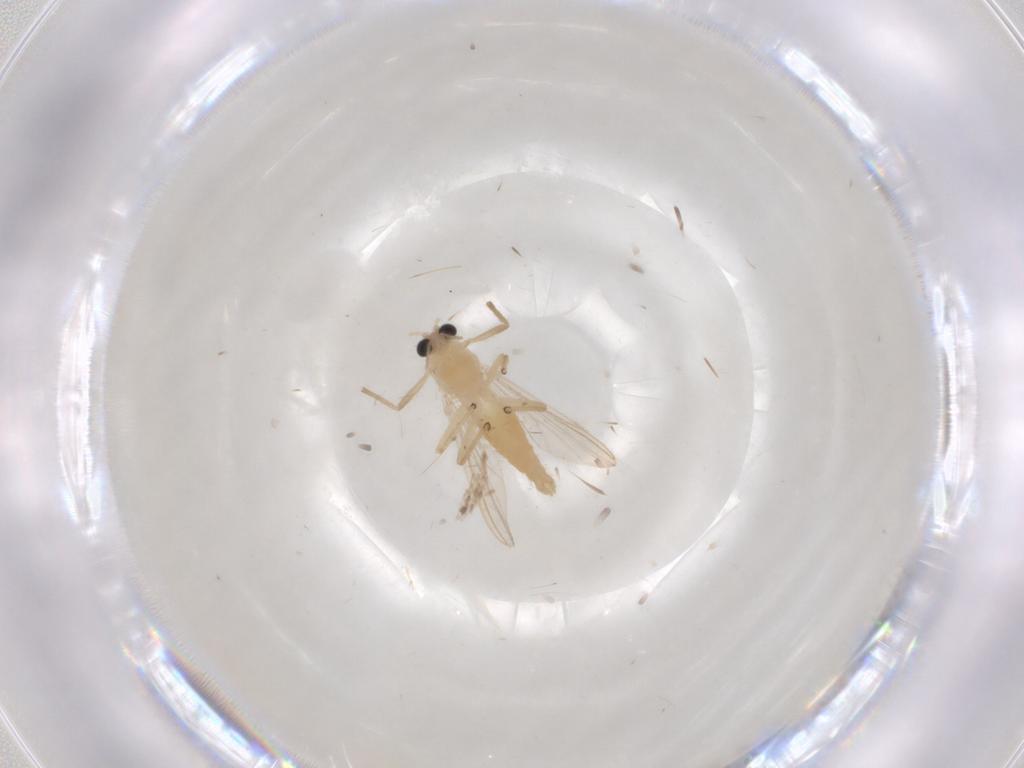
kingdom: Animalia
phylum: Arthropoda
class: Insecta
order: Diptera
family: Chironomidae
